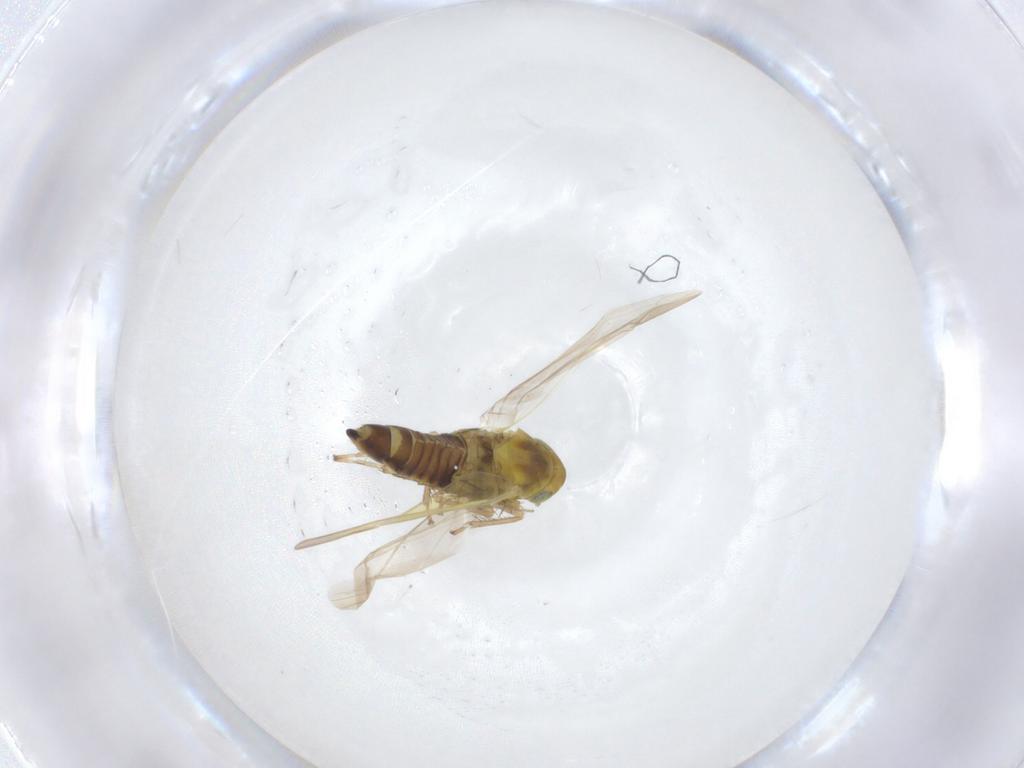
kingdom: Animalia
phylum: Arthropoda
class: Insecta
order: Hemiptera
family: Cicadellidae
